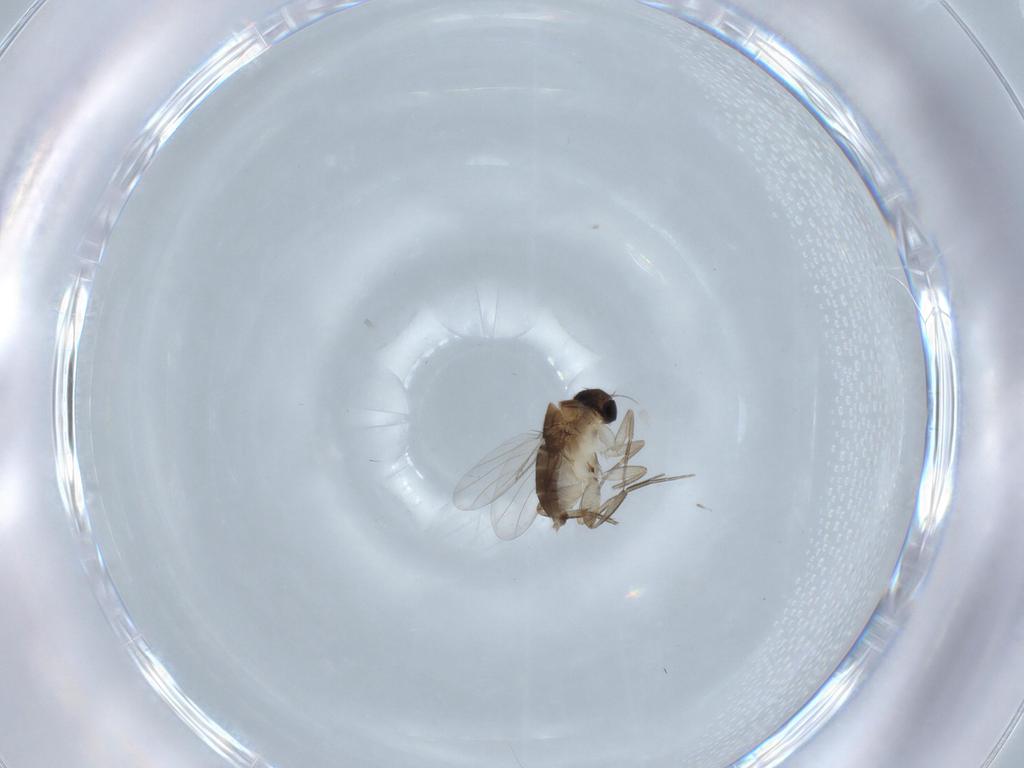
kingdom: Animalia
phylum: Arthropoda
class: Insecta
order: Diptera
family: Phoridae
